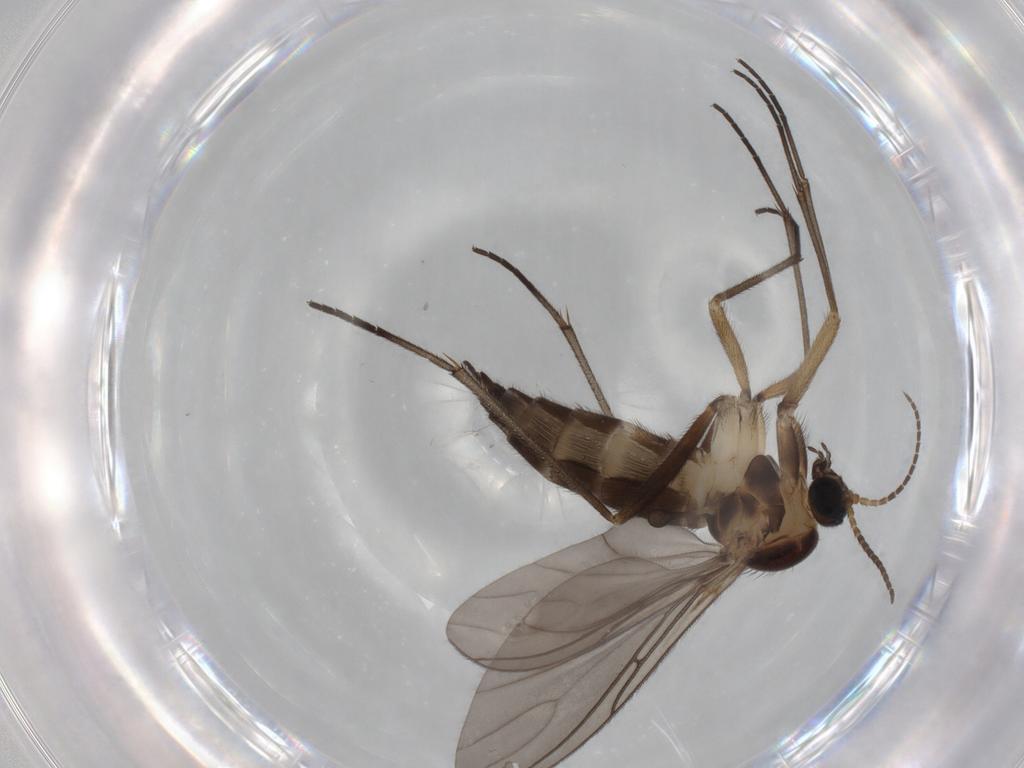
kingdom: Animalia
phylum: Arthropoda
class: Insecta
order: Diptera
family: Sciaridae
